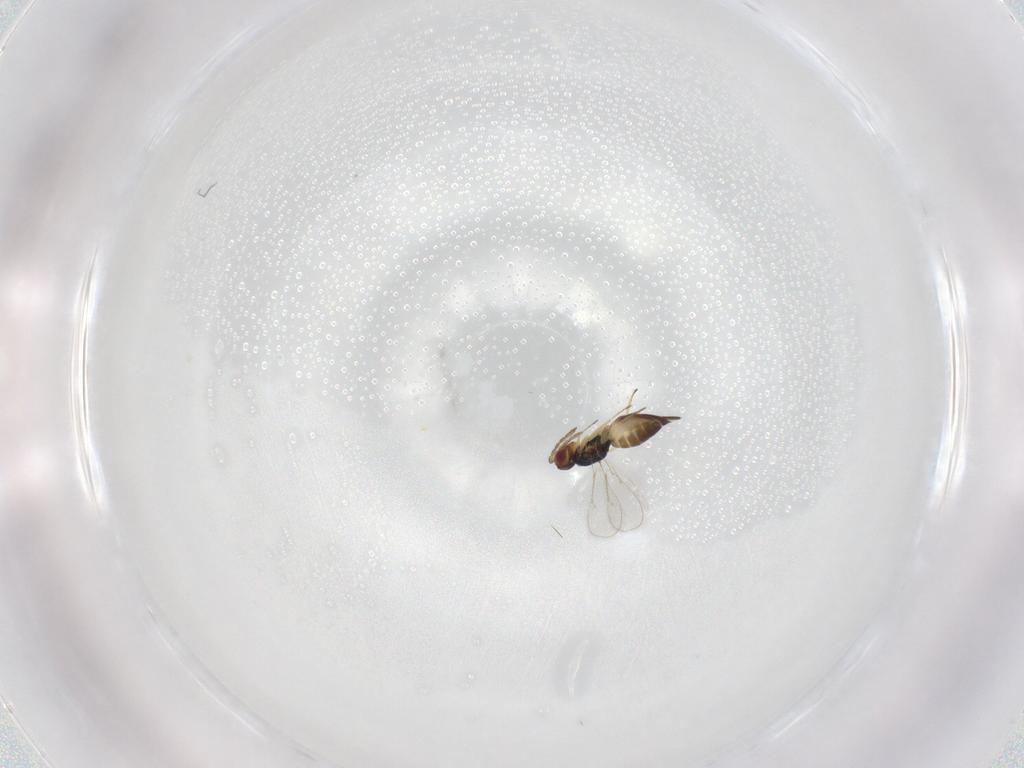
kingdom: Animalia
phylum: Arthropoda
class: Insecta
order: Hymenoptera
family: Eulophidae
